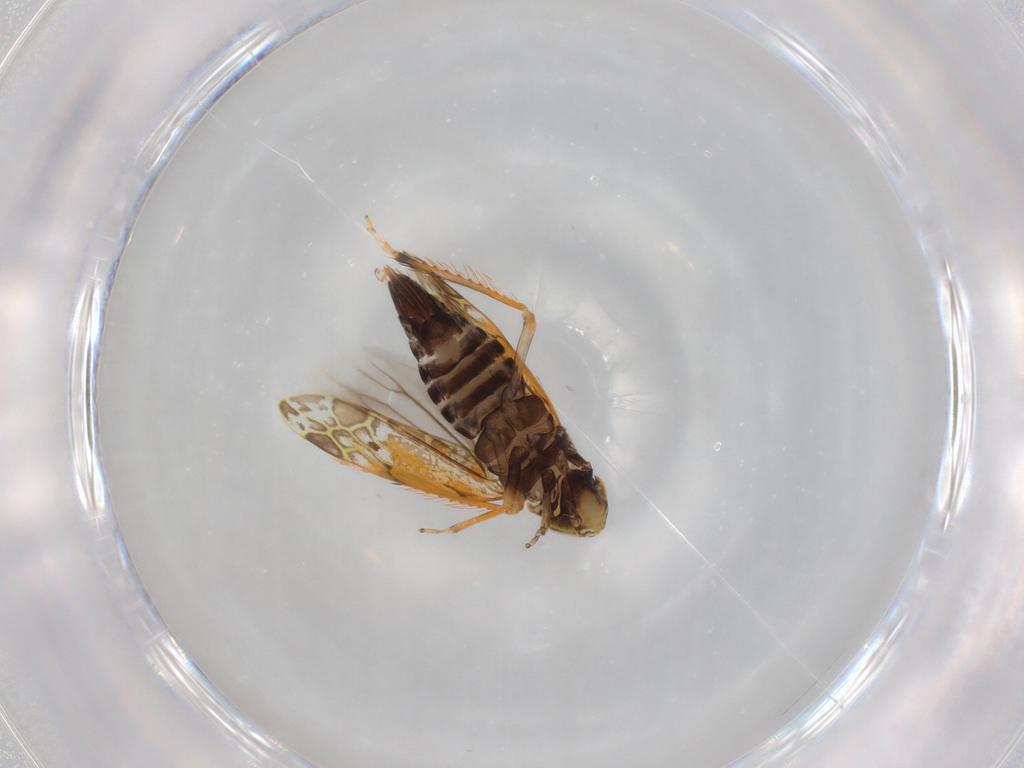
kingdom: Animalia
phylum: Arthropoda
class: Insecta
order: Hemiptera
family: Cicadellidae
